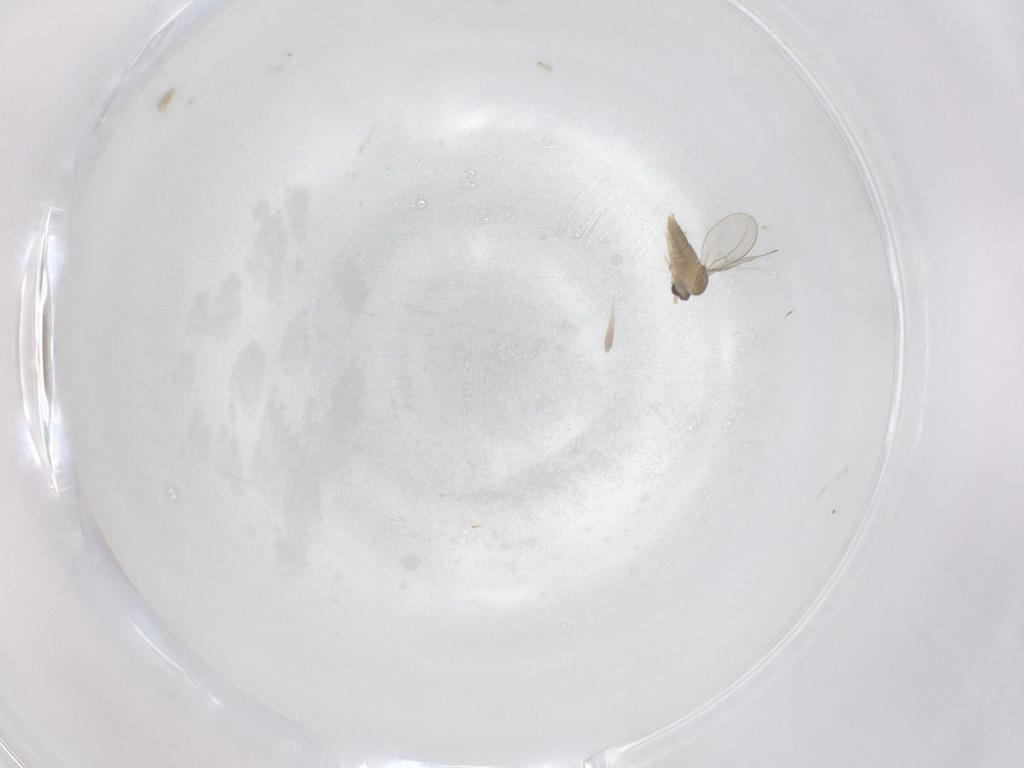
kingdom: Animalia
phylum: Arthropoda
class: Insecta
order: Diptera
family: Cecidomyiidae
